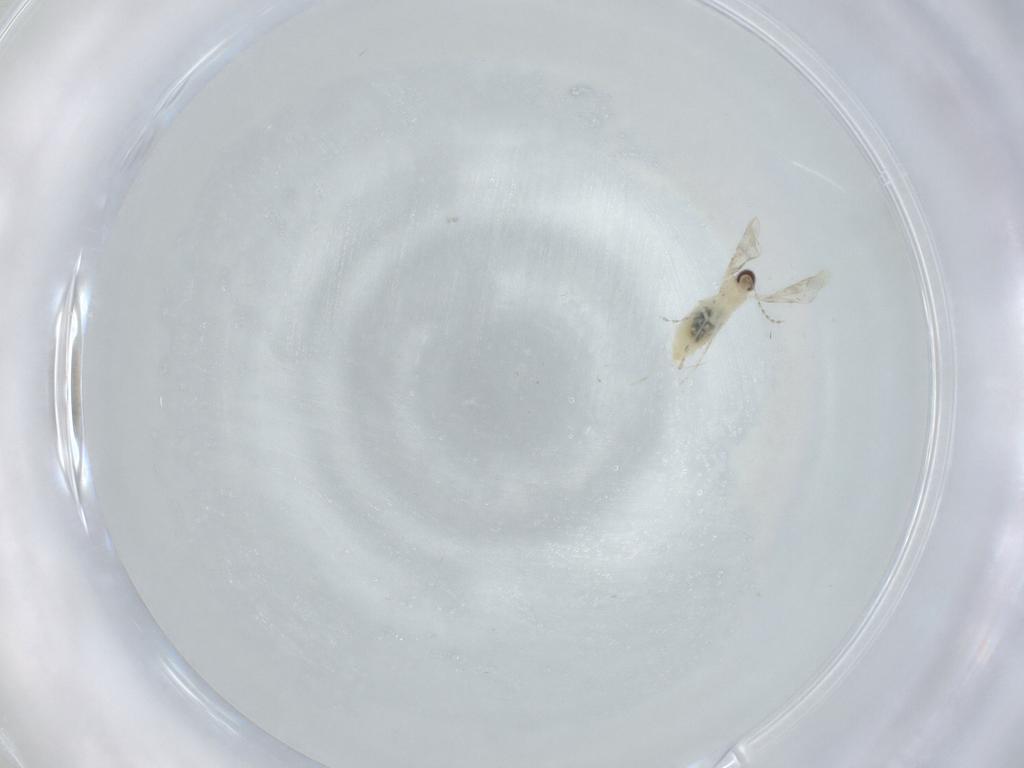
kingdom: Animalia
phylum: Arthropoda
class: Insecta
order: Diptera
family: Cecidomyiidae
